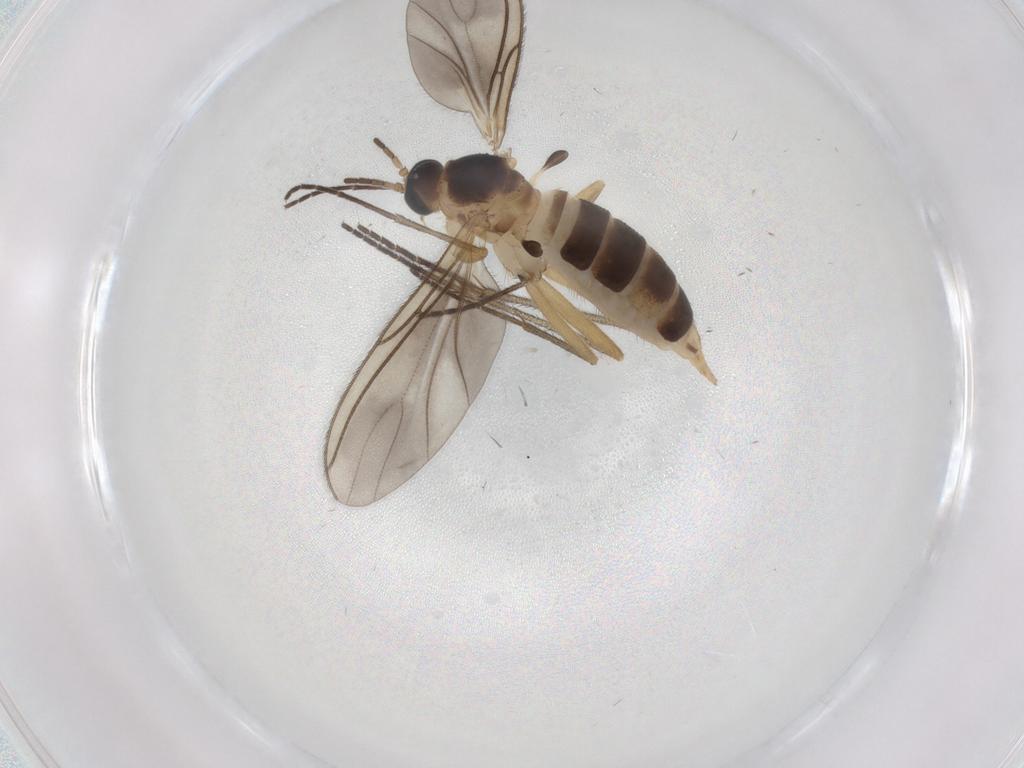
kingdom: Animalia
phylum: Arthropoda
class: Insecta
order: Diptera
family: Sciaridae
